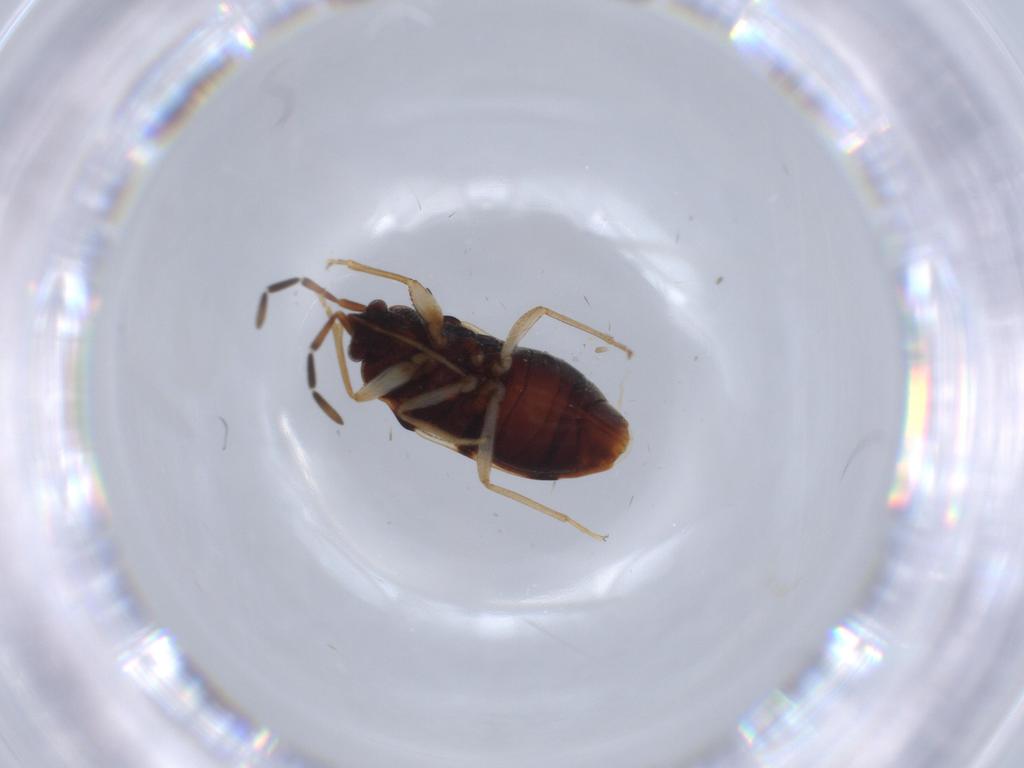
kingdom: Animalia
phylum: Arthropoda
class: Insecta
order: Hemiptera
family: Rhyparochromidae
